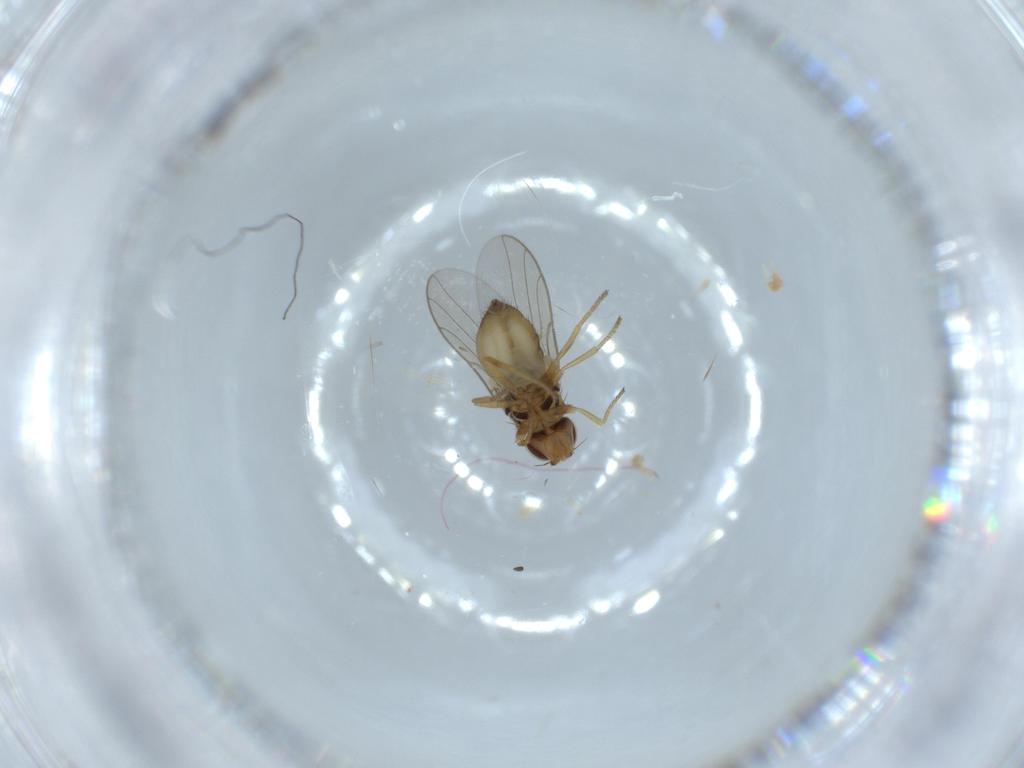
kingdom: Animalia
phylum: Arthropoda
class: Insecta
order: Diptera
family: Chloropidae
